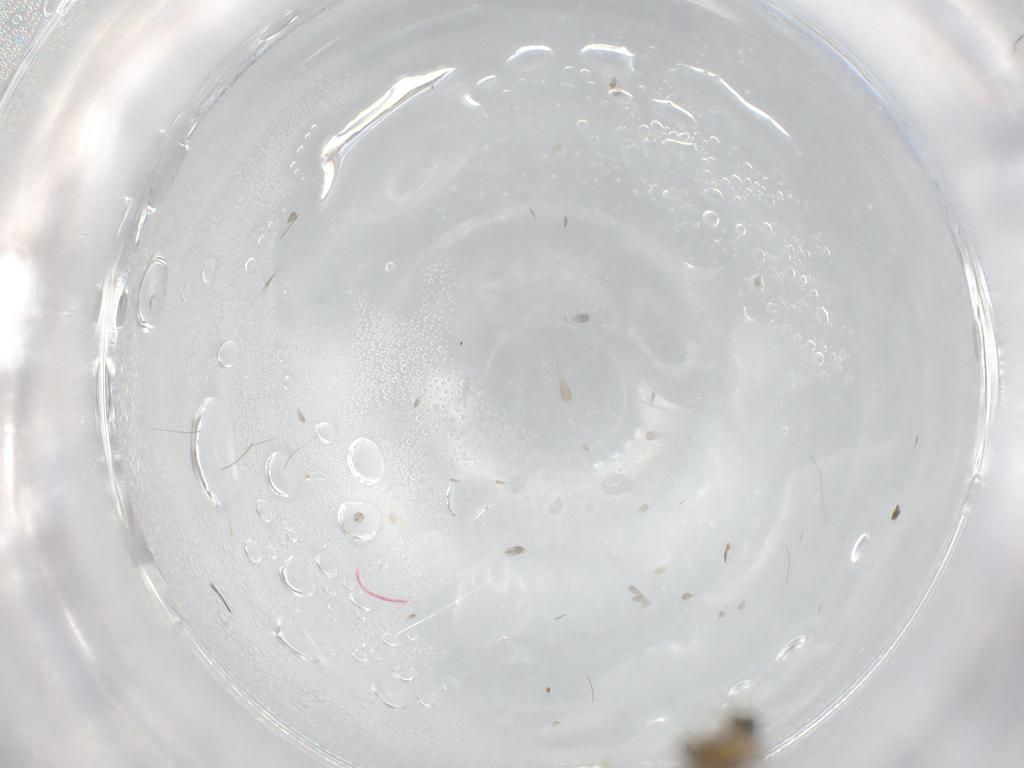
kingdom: Animalia
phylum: Arthropoda
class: Collembola
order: Entomobryomorpha
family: Entomobryidae
